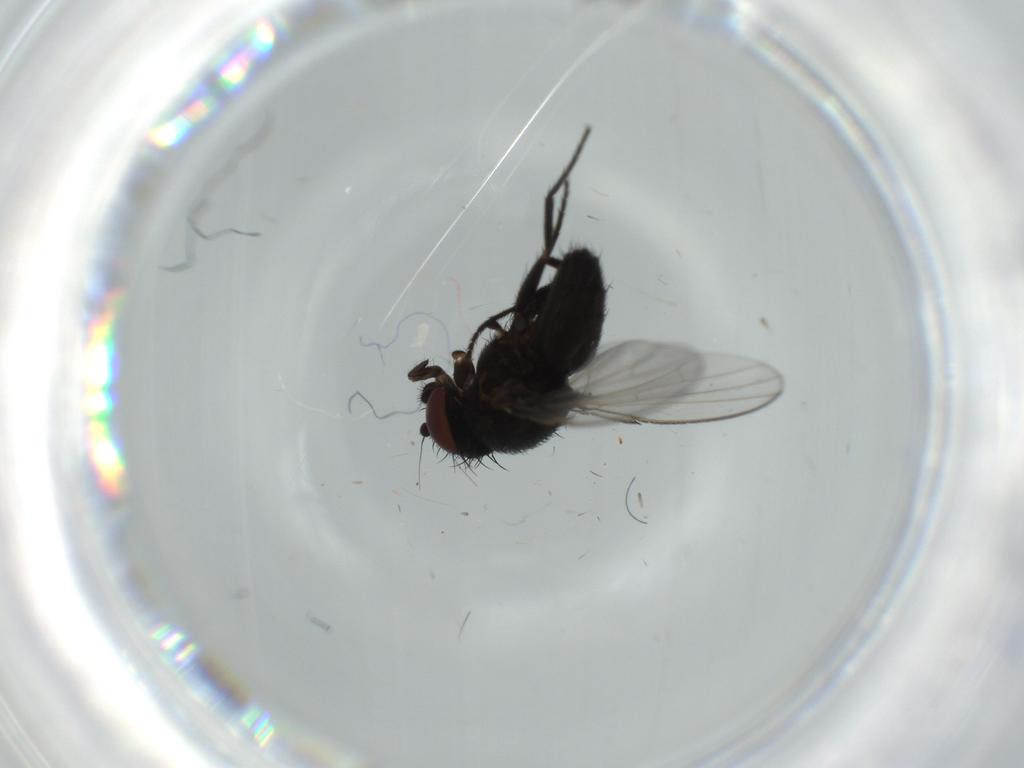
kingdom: Animalia
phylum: Arthropoda
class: Insecta
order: Diptera
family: Milichiidae
